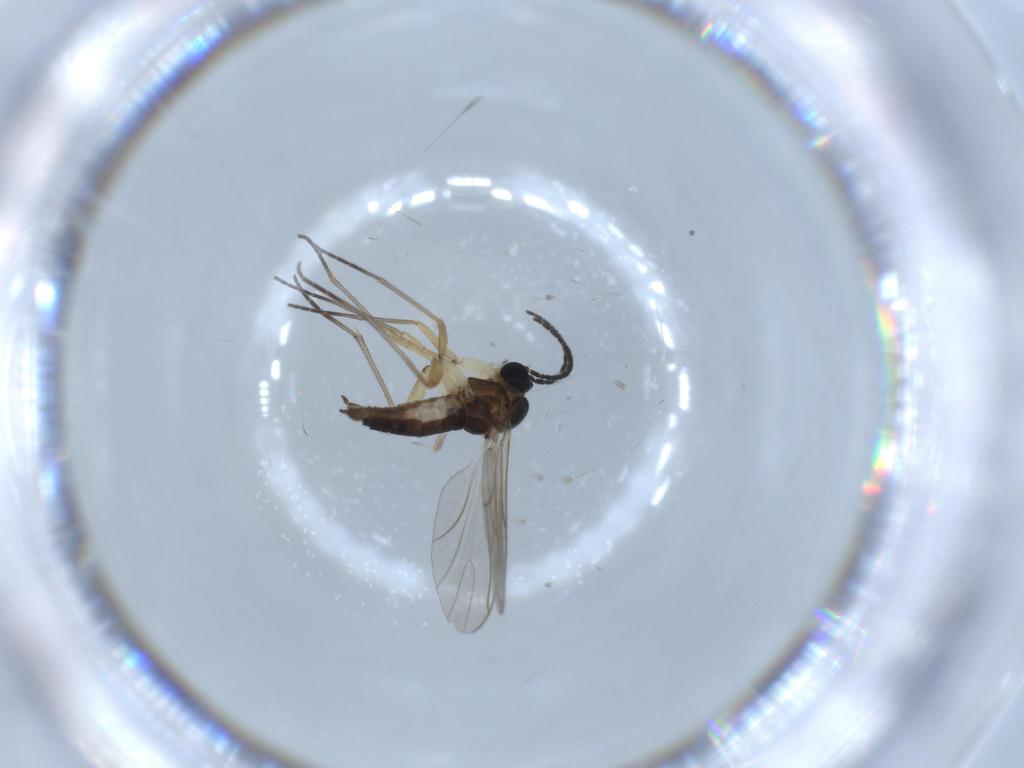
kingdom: Animalia
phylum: Arthropoda
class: Insecta
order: Diptera
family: Sciaridae
